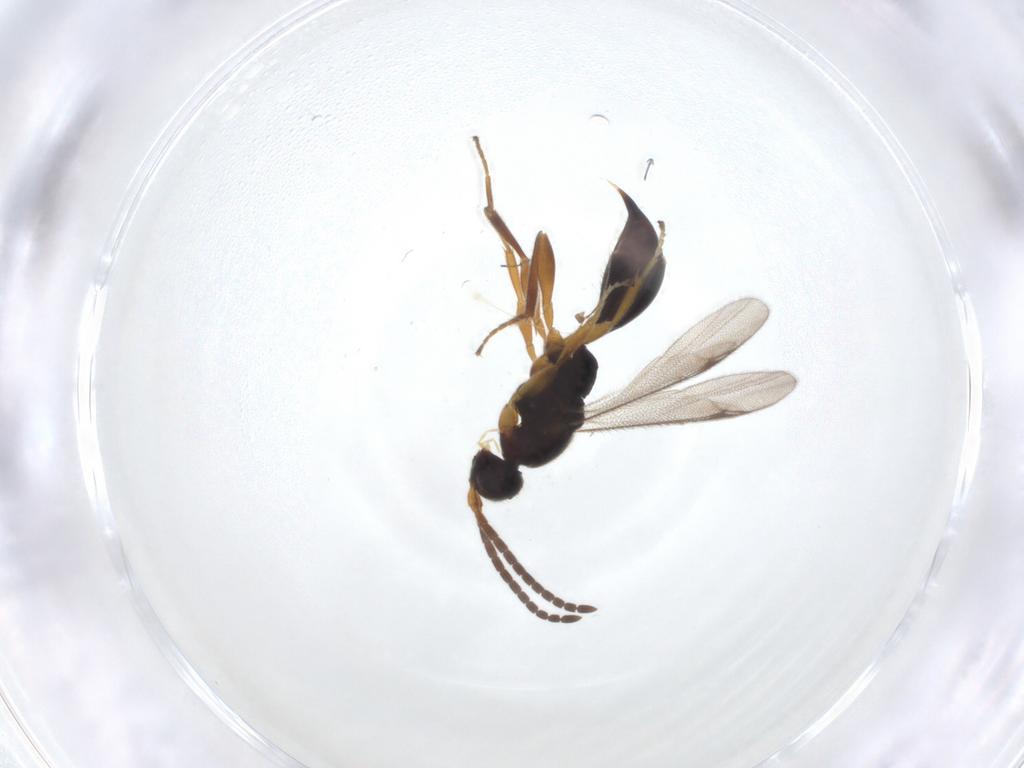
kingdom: Animalia
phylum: Arthropoda
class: Insecta
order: Hymenoptera
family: Proctotrupidae
